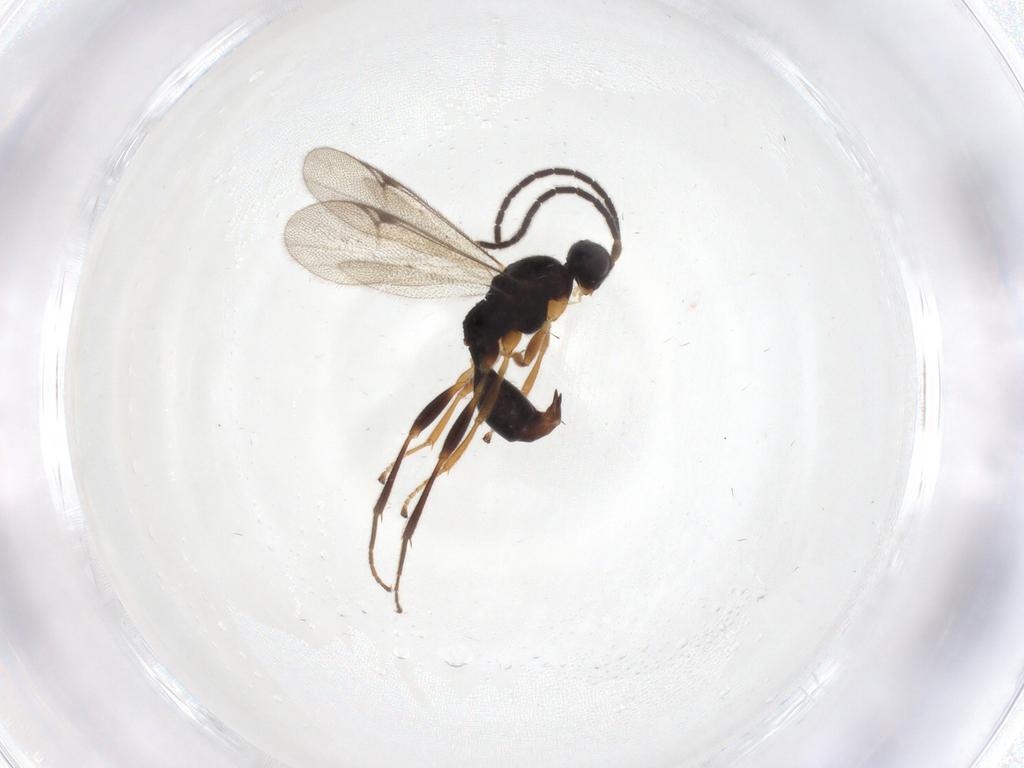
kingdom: Animalia
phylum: Arthropoda
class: Insecta
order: Hymenoptera
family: Proctotrupidae
